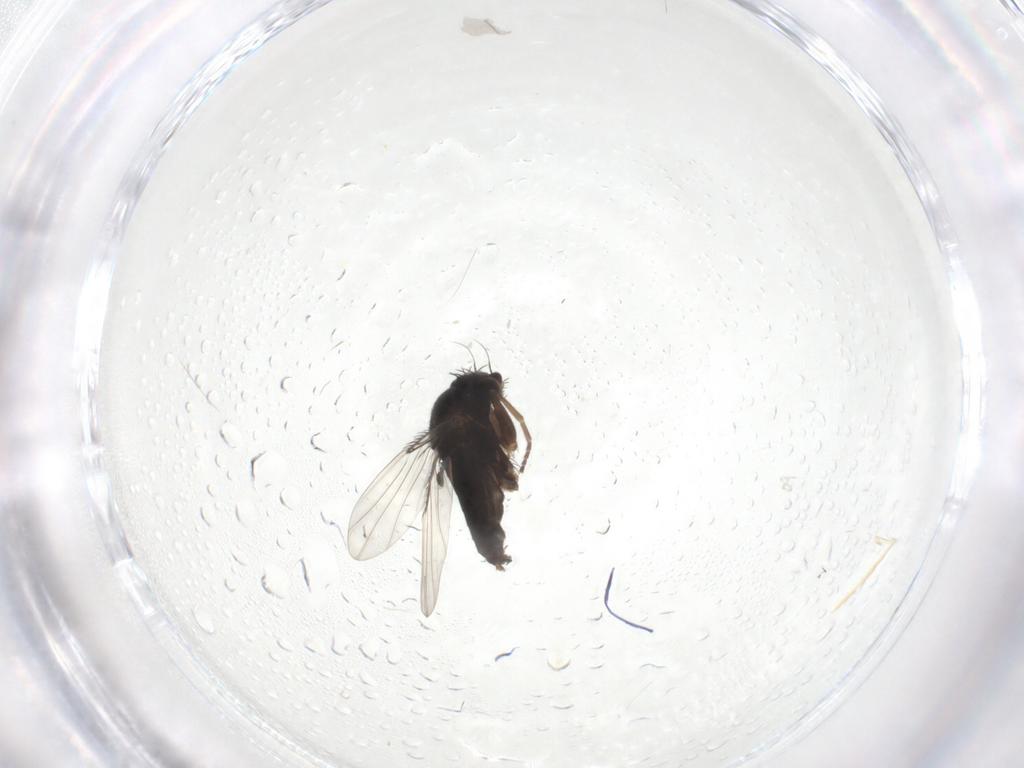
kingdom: Animalia
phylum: Arthropoda
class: Insecta
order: Diptera
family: Phoridae
